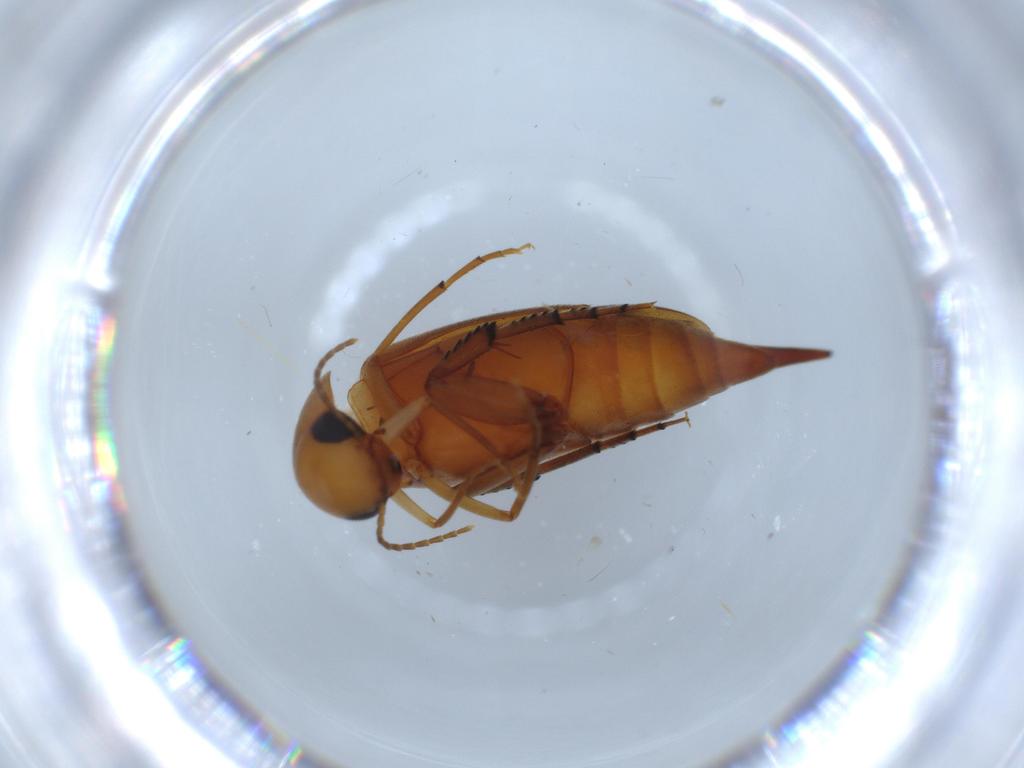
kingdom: Animalia
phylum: Arthropoda
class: Insecta
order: Coleoptera
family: Mordellidae
